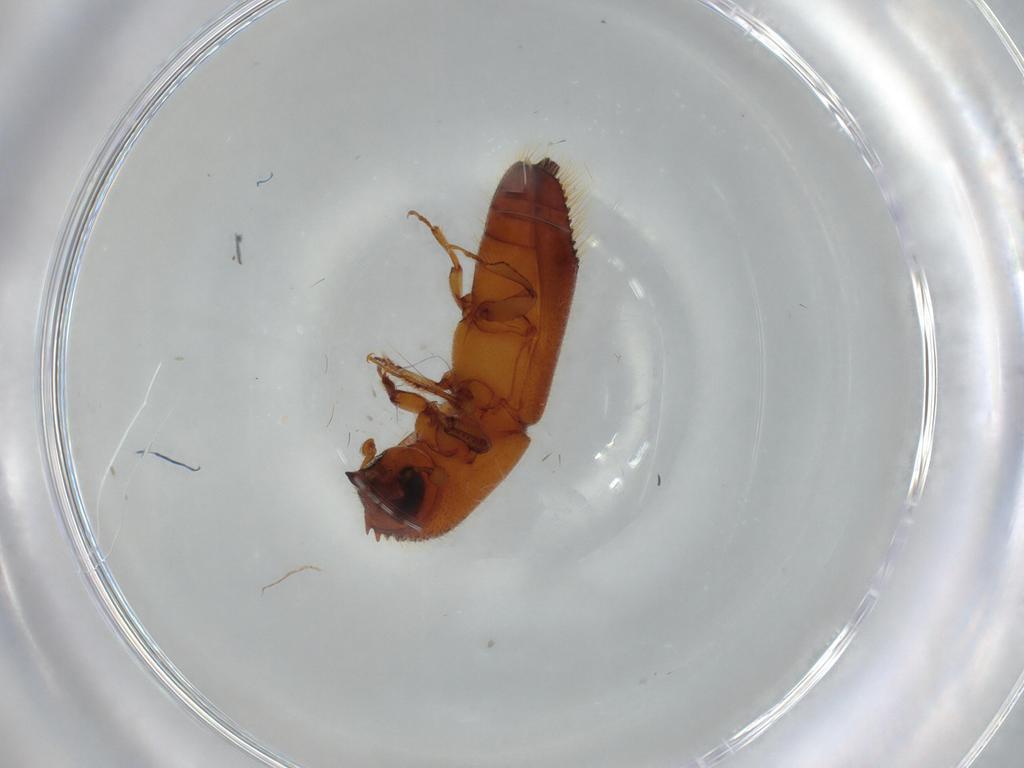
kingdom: Animalia
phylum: Arthropoda
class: Insecta
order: Coleoptera
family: Curculionidae
